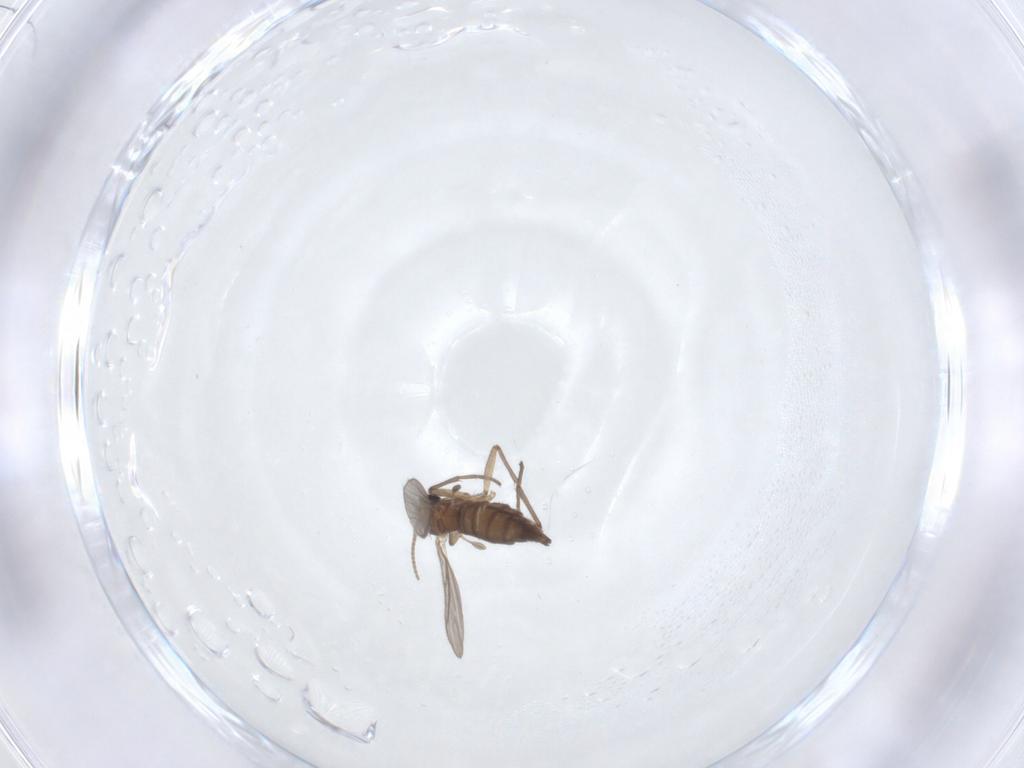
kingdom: Animalia
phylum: Arthropoda
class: Insecta
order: Diptera
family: Sciaridae
